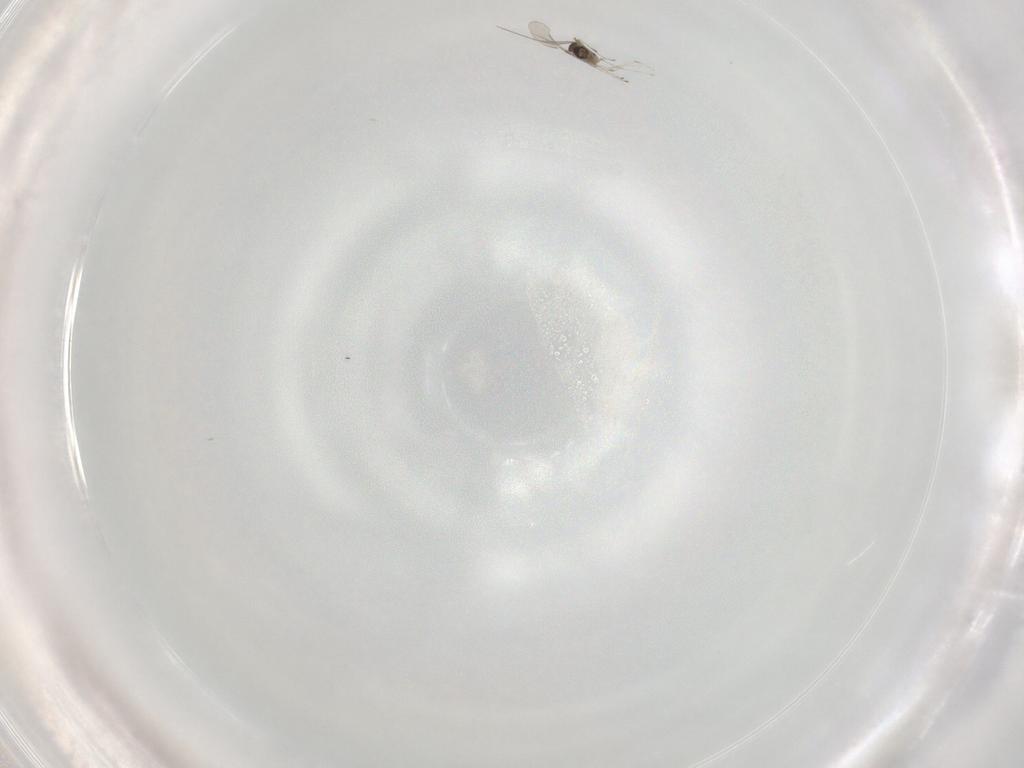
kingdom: Animalia
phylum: Arthropoda
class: Insecta
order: Diptera
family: Cecidomyiidae
